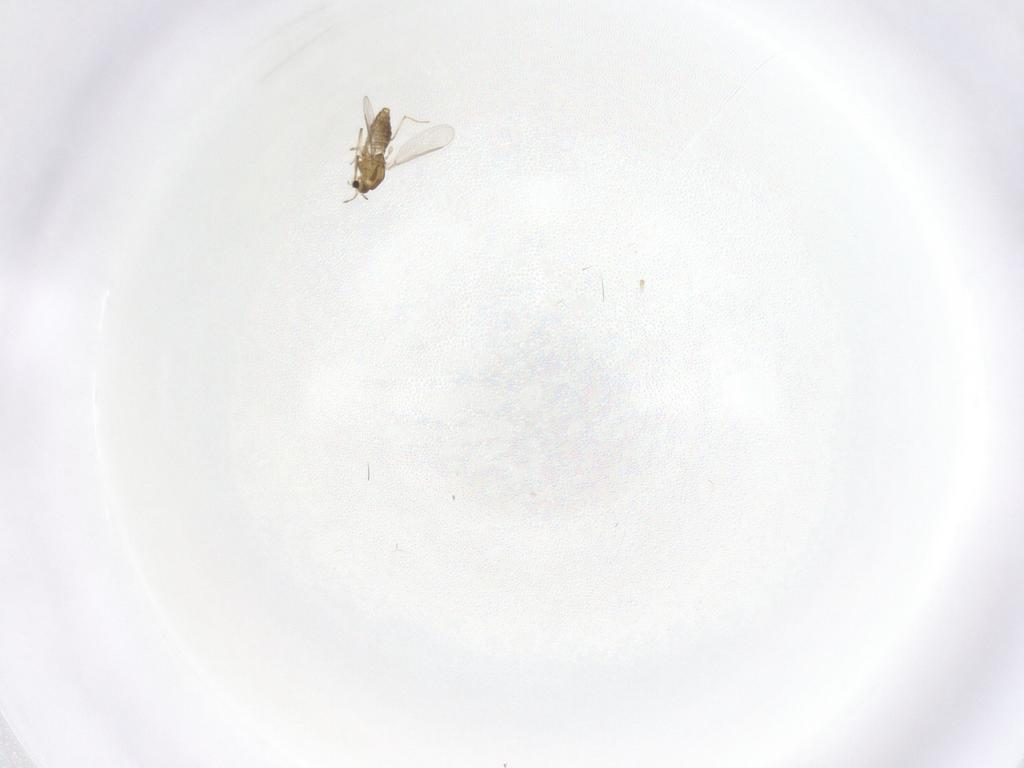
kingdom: Animalia
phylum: Arthropoda
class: Insecta
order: Diptera
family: Chironomidae
